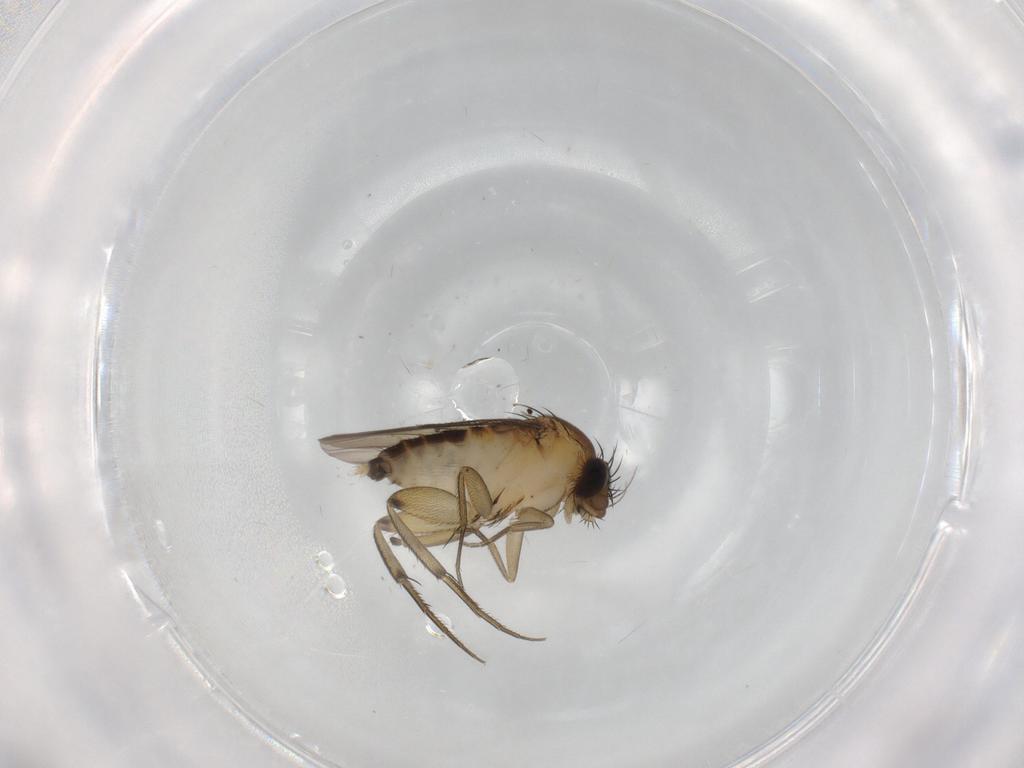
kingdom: Animalia
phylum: Arthropoda
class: Insecta
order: Diptera
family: Phoridae
